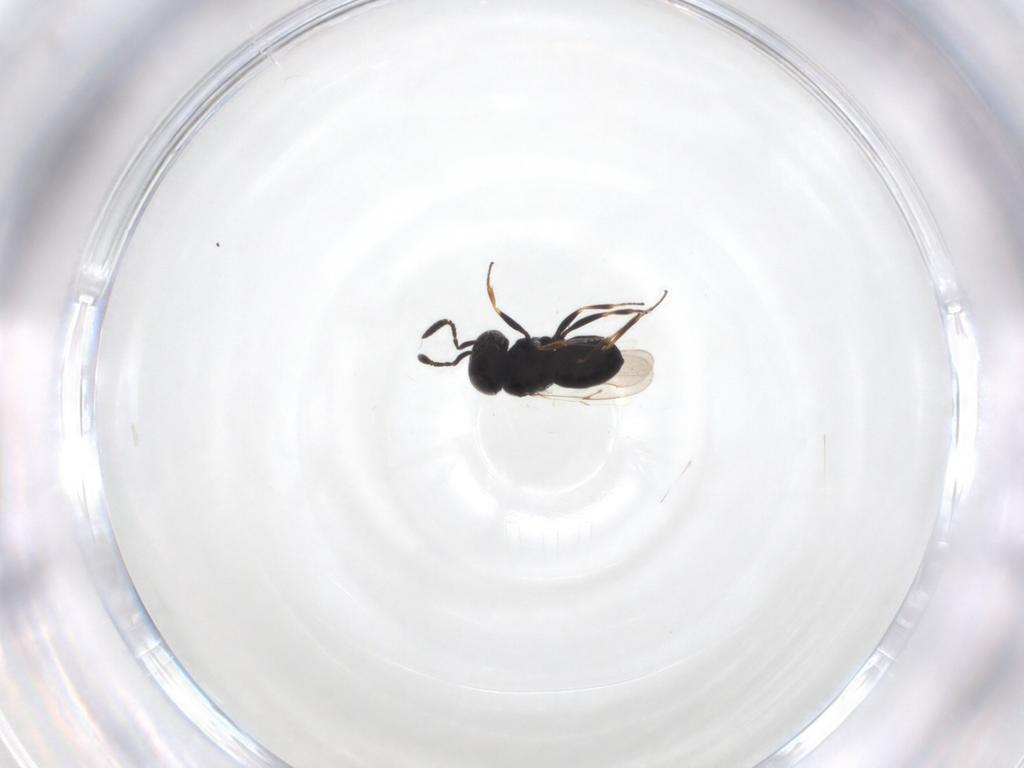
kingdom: Animalia
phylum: Arthropoda
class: Insecta
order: Hymenoptera
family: Scelionidae
